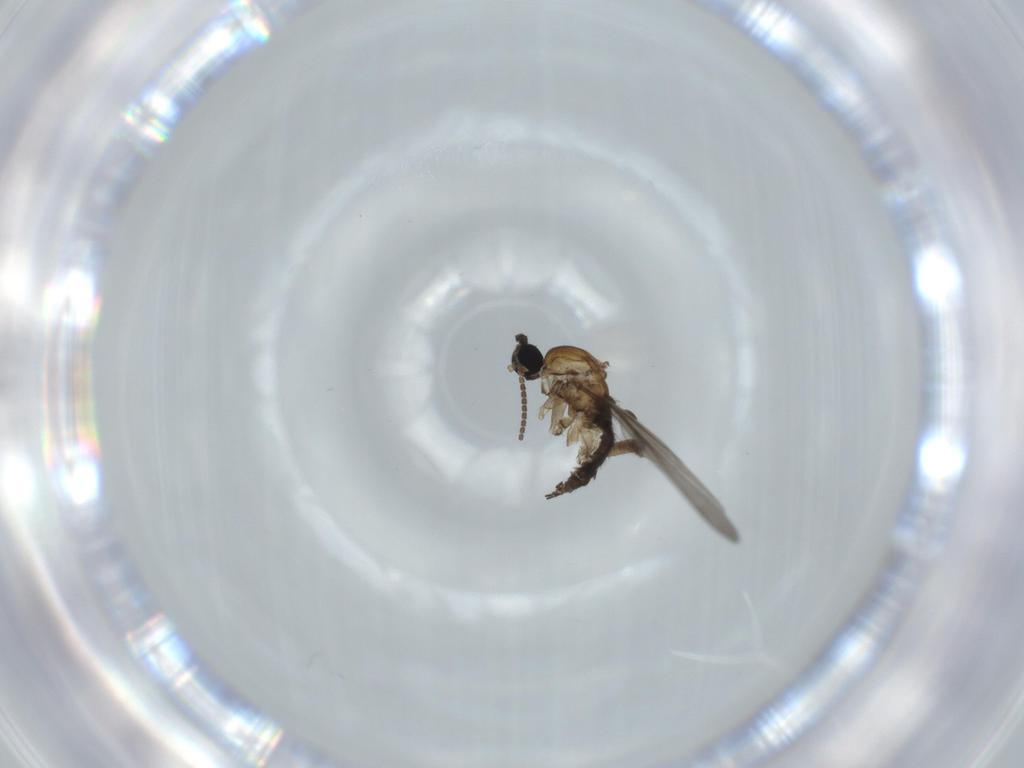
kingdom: Animalia
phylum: Arthropoda
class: Insecta
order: Diptera
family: Sciaridae
